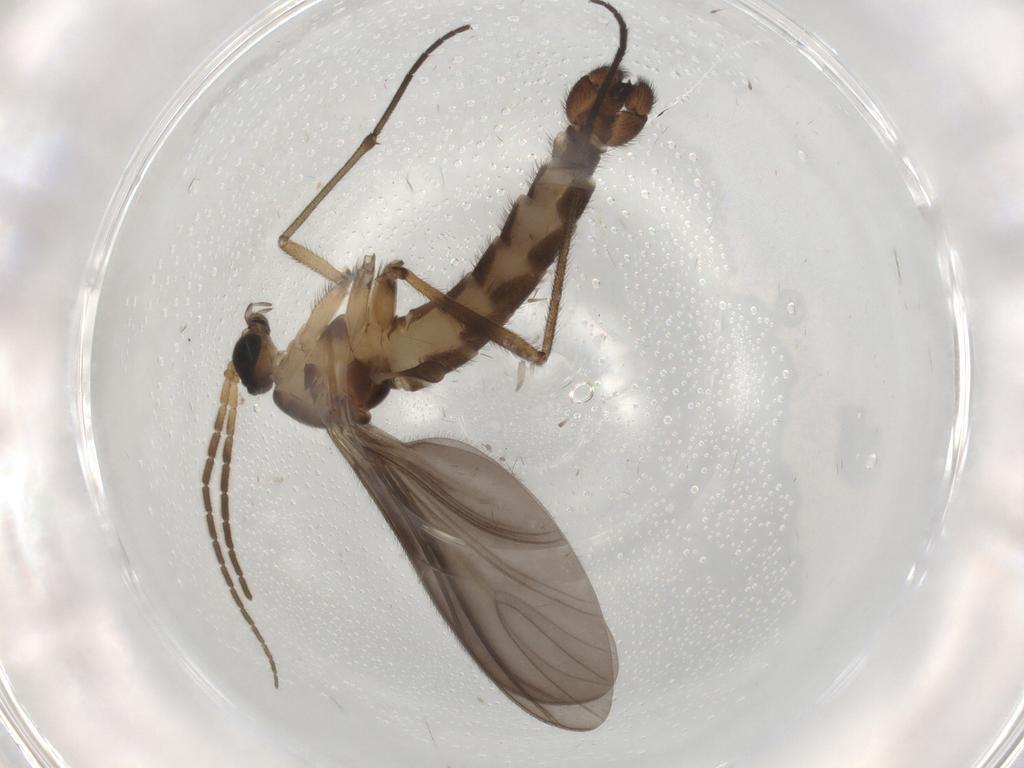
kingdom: Animalia
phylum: Arthropoda
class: Insecta
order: Diptera
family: Sciaridae
